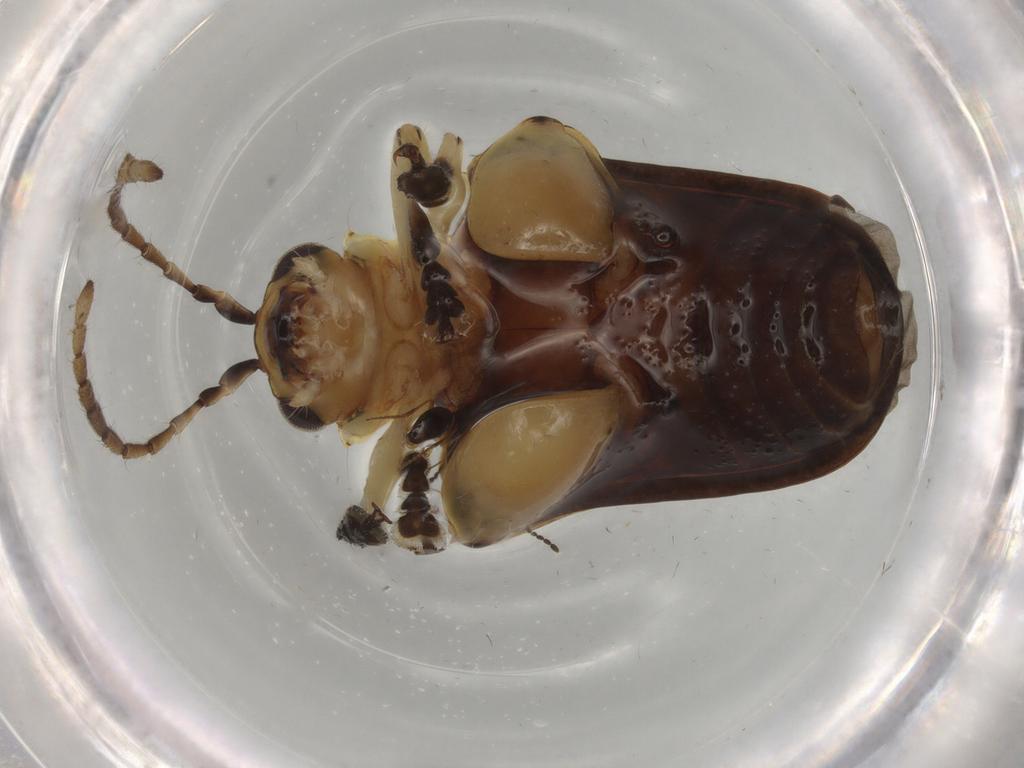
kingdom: Animalia
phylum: Arthropoda
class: Insecta
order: Coleoptera
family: Chrysomelidae
